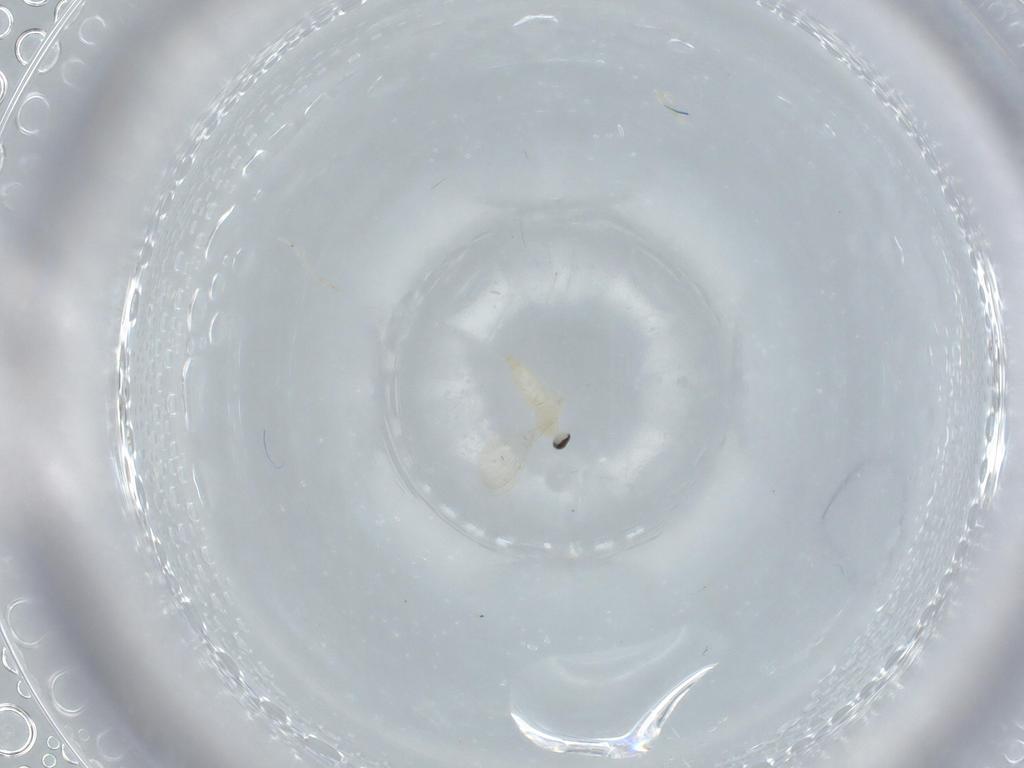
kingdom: Animalia
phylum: Arthropoda
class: Insecta
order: Diptera
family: Cecidomyiidae
